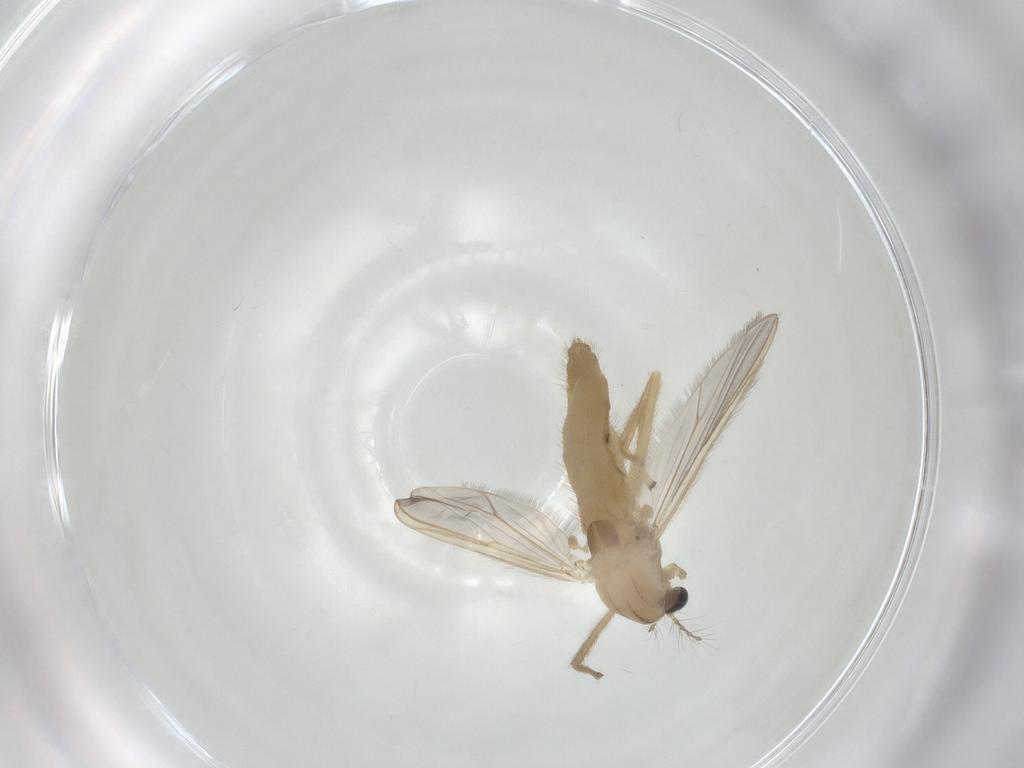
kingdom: Animalia
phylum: Arthropoda
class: Insecta
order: Diptera
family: Chironomidae
